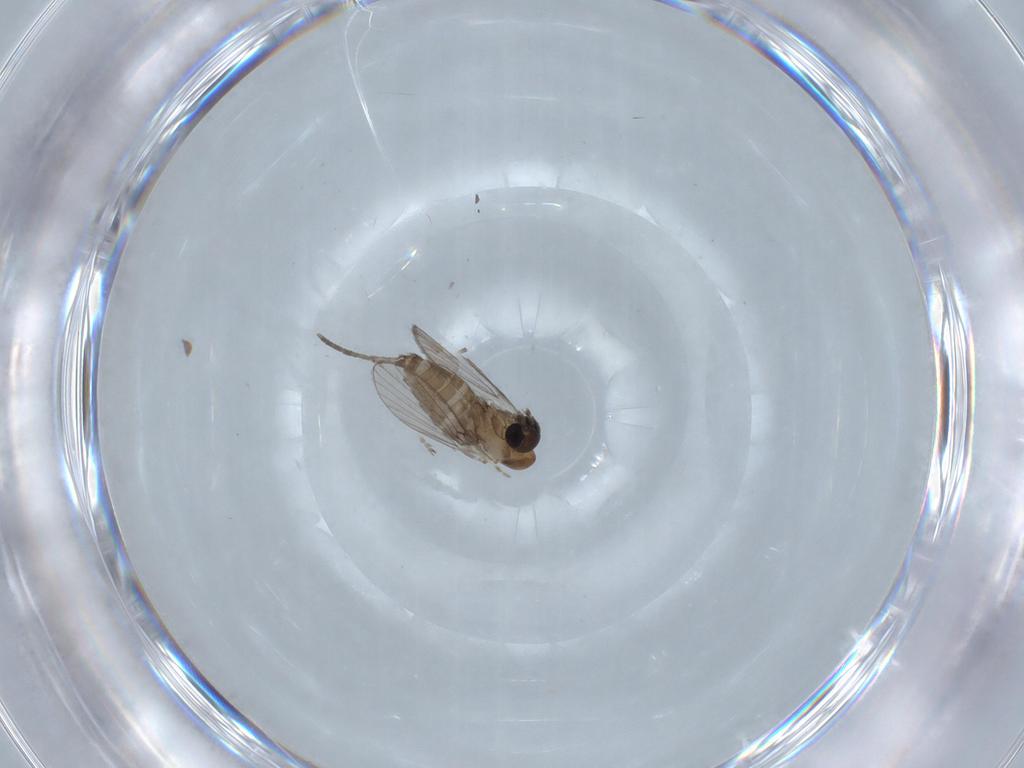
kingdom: Animalia
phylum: Arthropoda
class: Insecta
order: Diptera
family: Psychodidae
